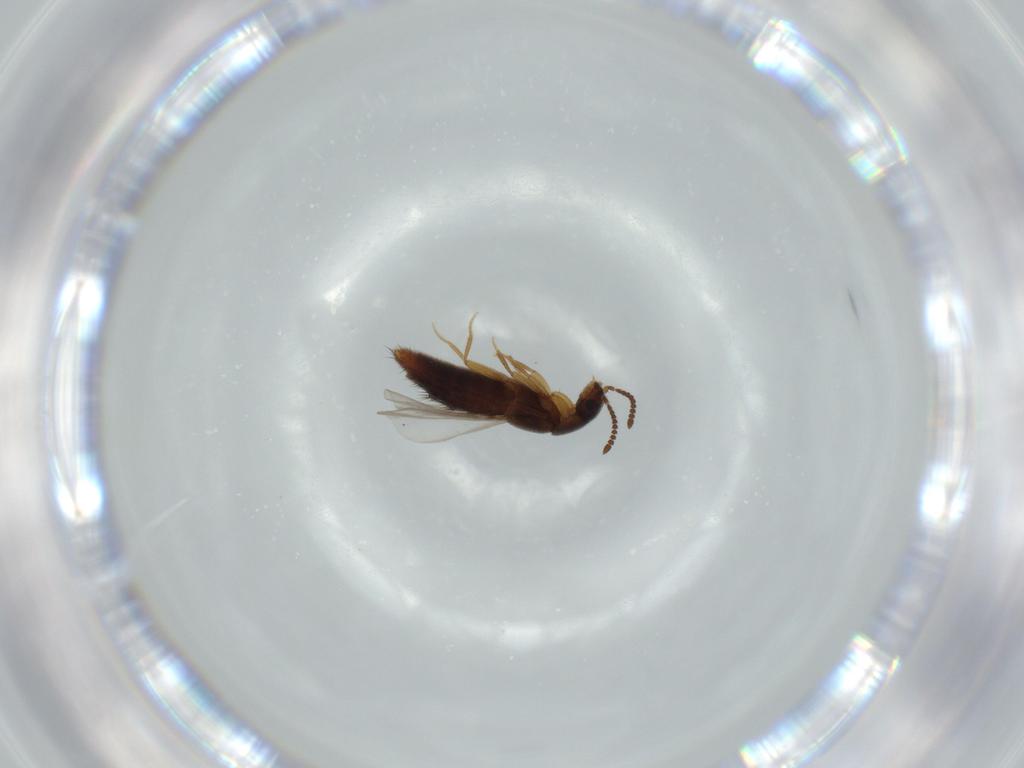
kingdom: Animalia
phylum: Arthropoda
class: Insecta
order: Coleoptera
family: Staphylinidae
